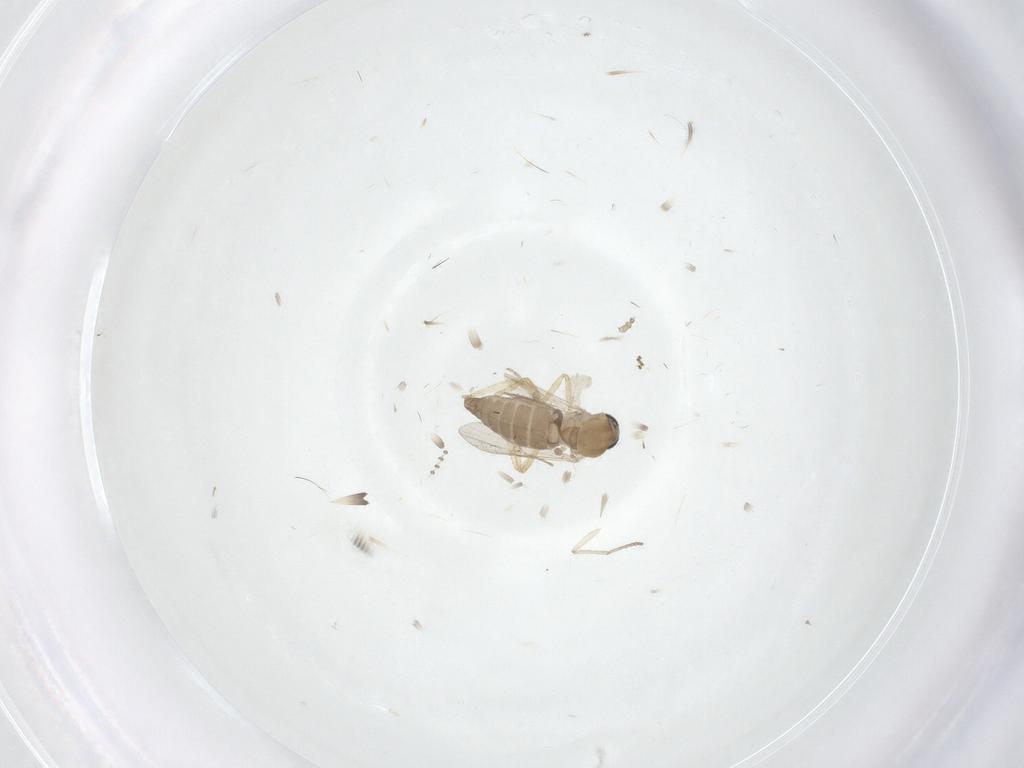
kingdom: Animalia
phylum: Arthropoda
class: Insecta
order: Diptera
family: Ceratopogonidae
